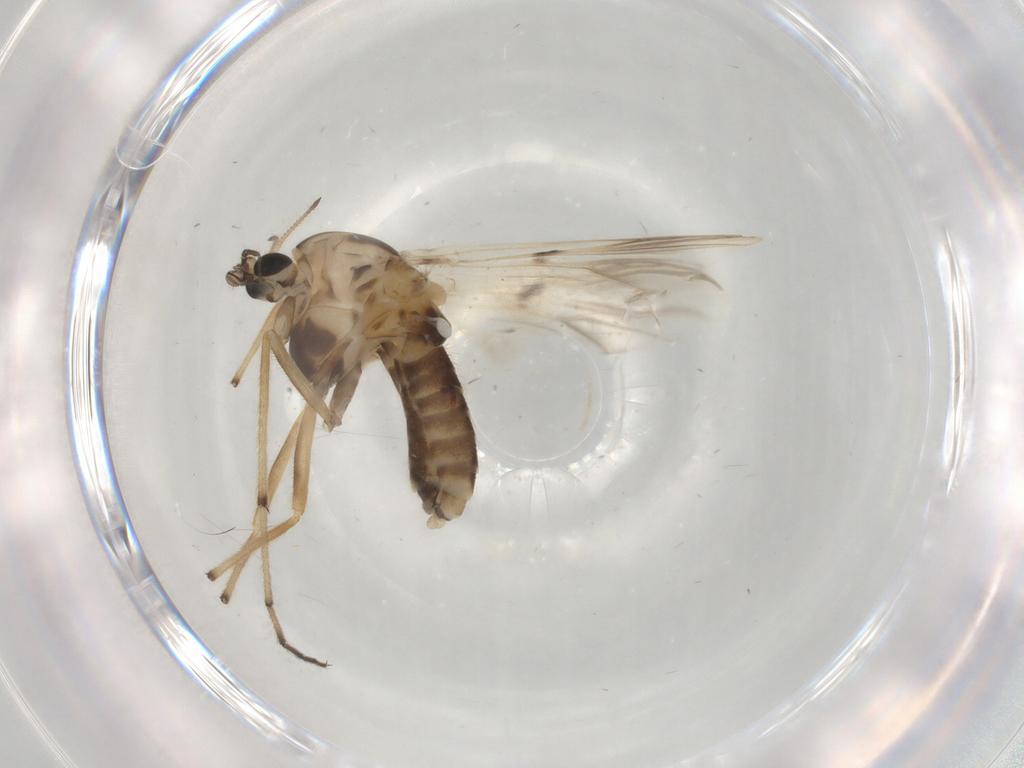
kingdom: Animalia
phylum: Arthropoda
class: Insecta
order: Diptera
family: Chironomidae
